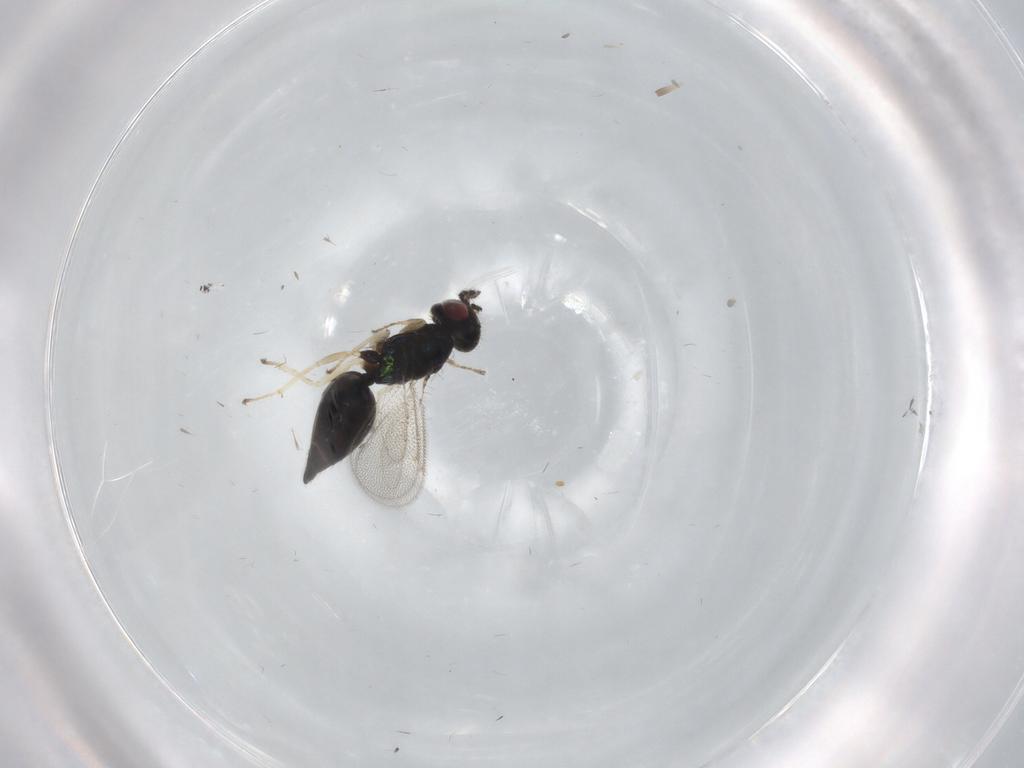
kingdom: Animalia
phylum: Arthropoda
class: Insecta
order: Hymenoptera
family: Eulophidae
